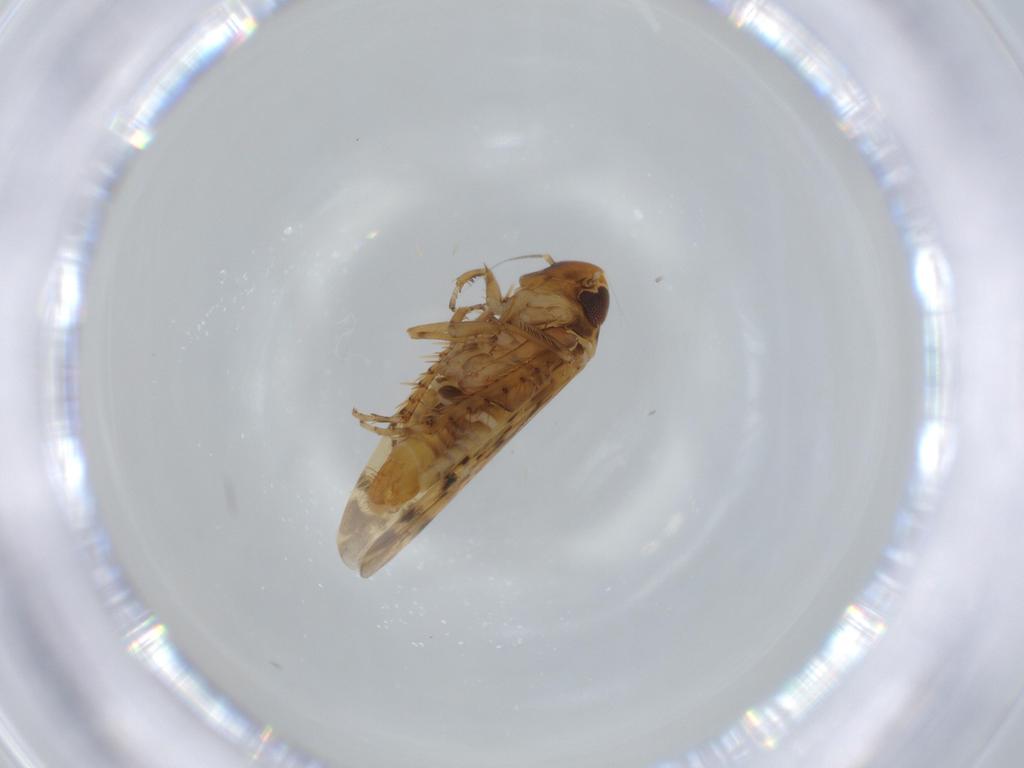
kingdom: Animalia
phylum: Arthropoda
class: Insecta
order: Hemiptera
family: Cicadellidae
